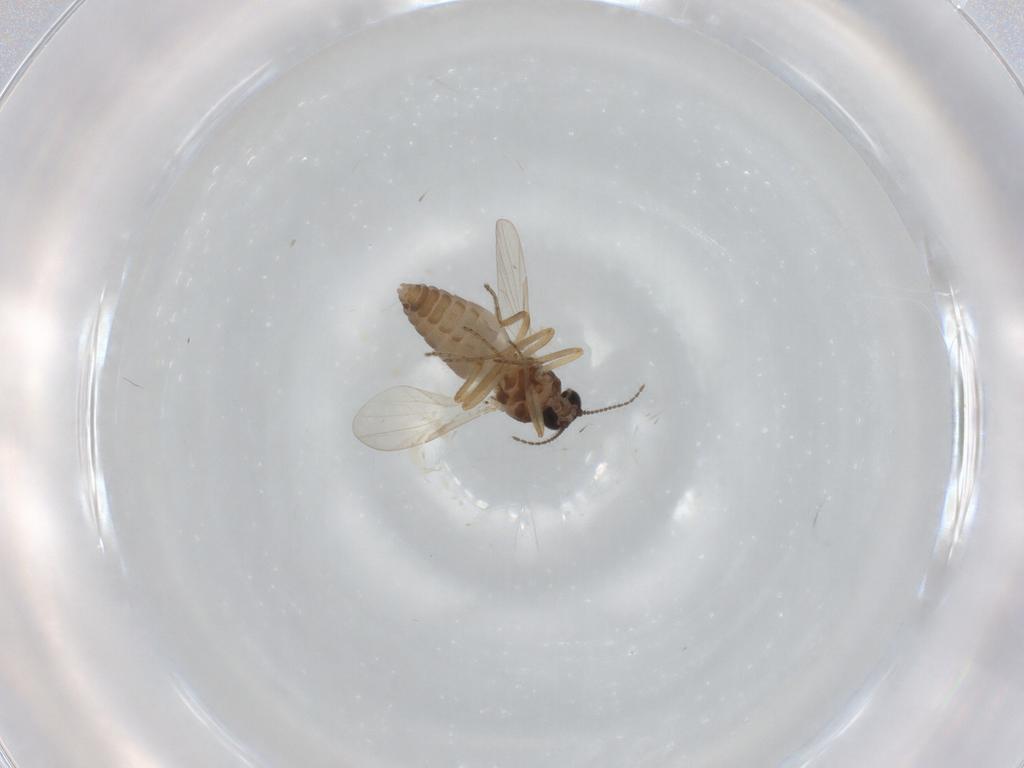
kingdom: Animalia
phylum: Arthropoda
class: Insecta
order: Diptera
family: Ceratopogonidae
